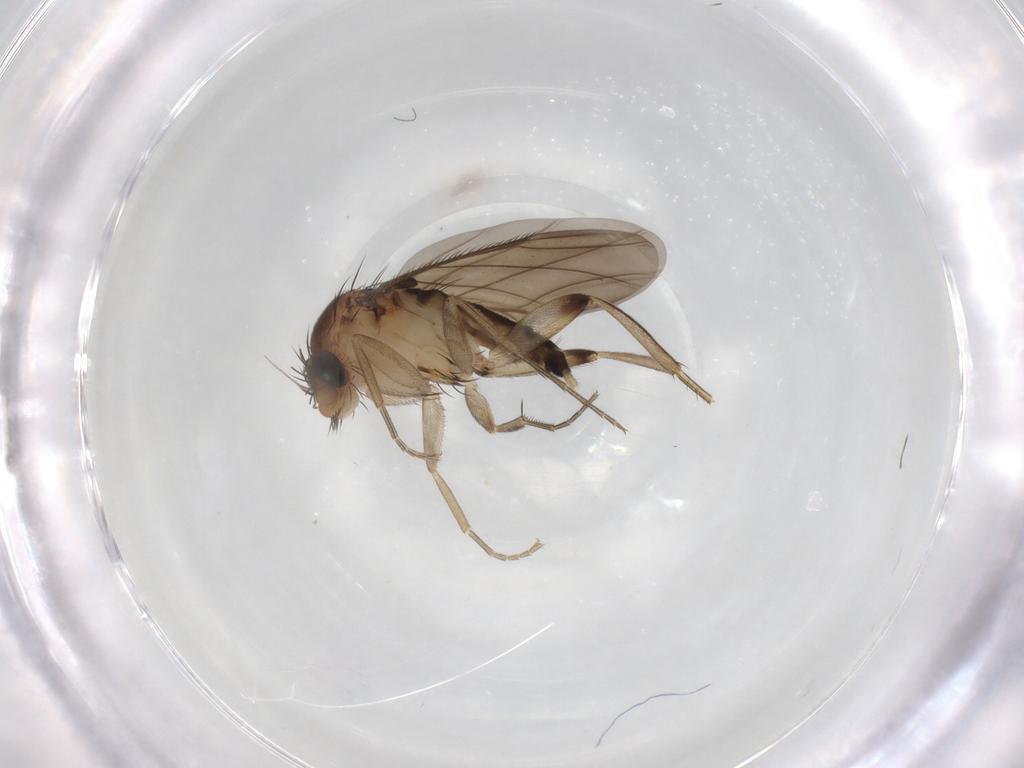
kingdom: Animalia
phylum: Arthropoda
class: Insecta
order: Diptera
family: Phoridae
